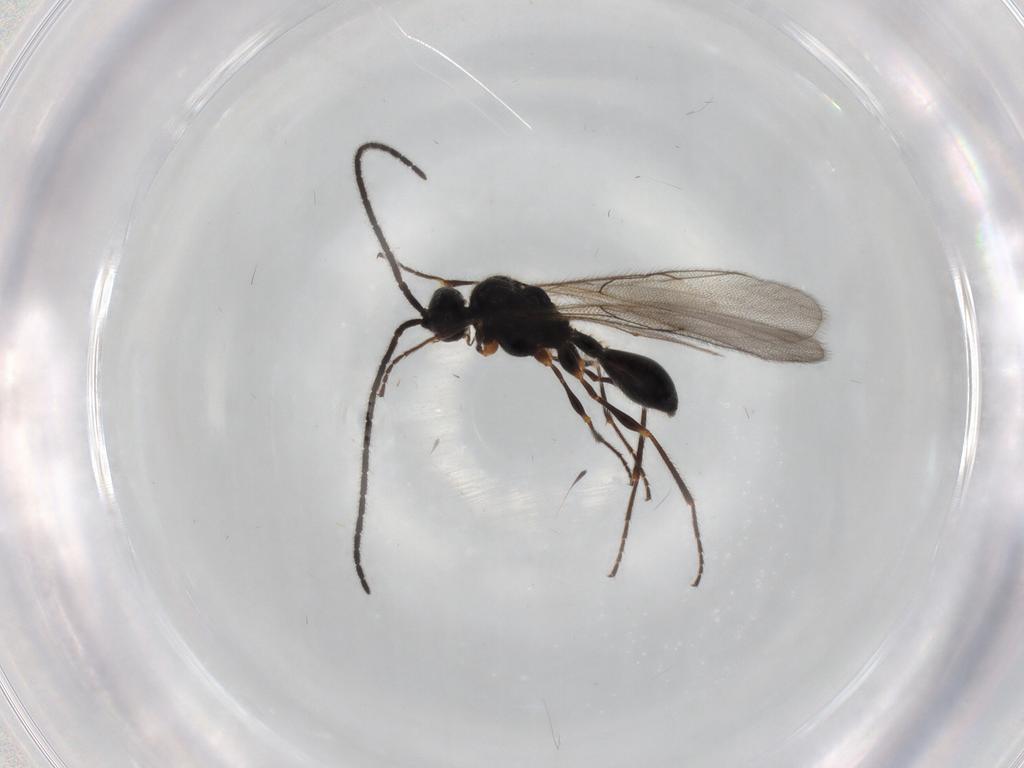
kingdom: Animalia
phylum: Arthropoda
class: Insecta
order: Hymenoptera
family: Diapriidae
